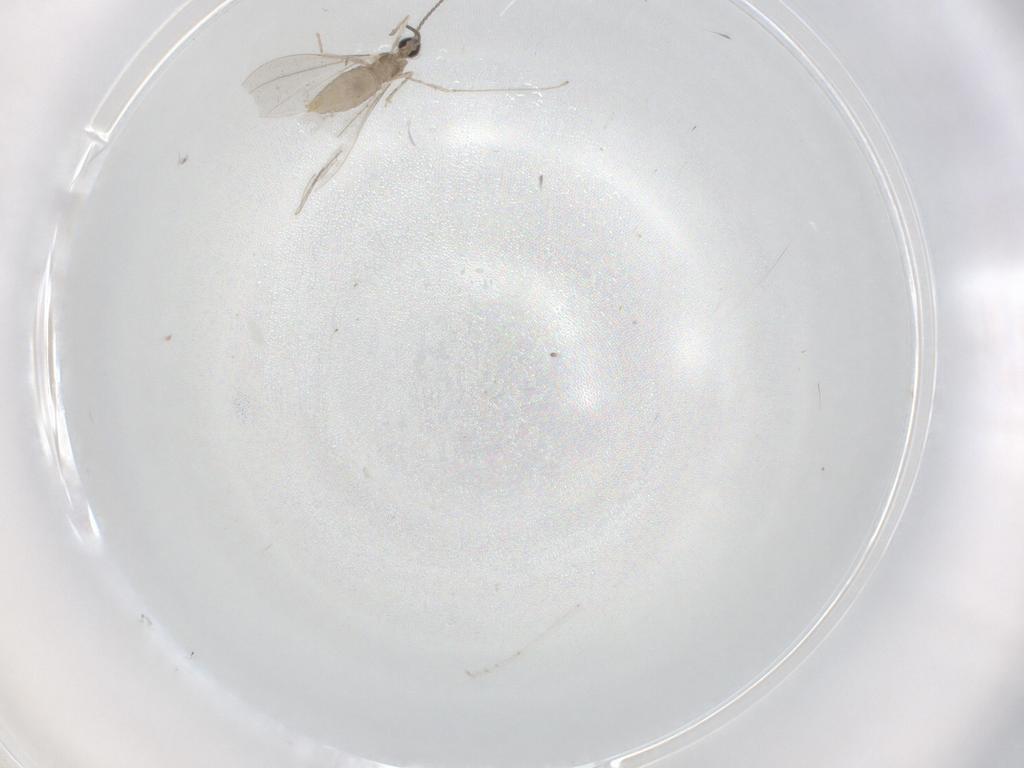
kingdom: Animalia
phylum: Arthropoda
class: Insecta
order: Diptera
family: Cecidomyiidae
